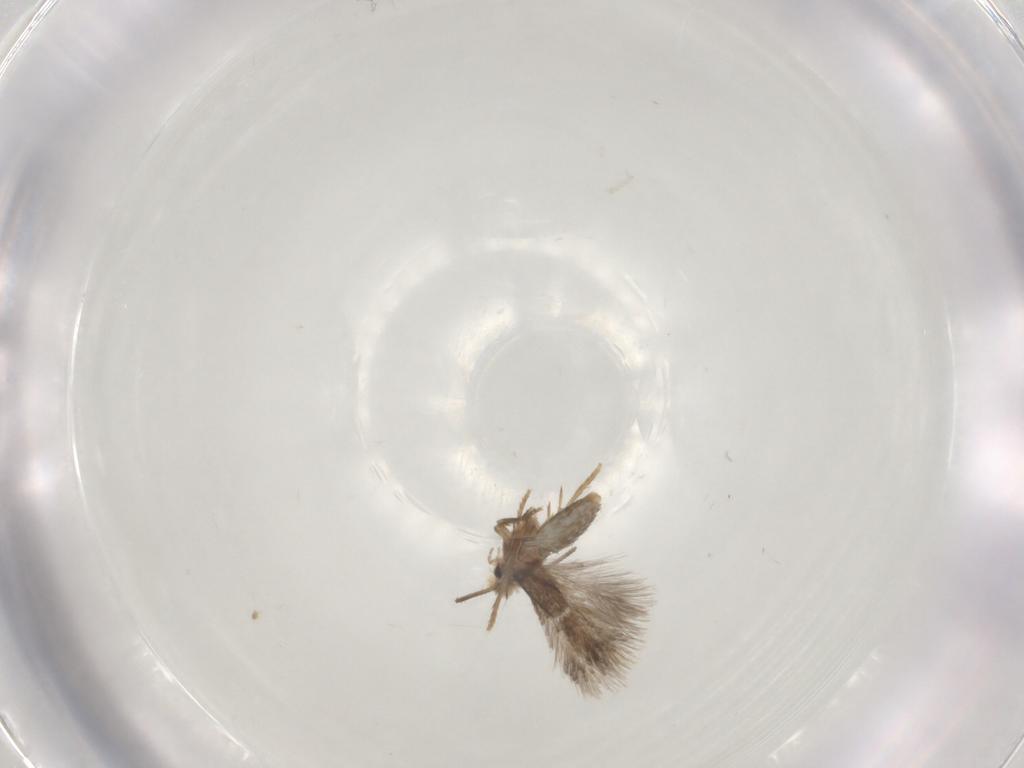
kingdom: Animalia
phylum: Arthropoda
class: Insecta
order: Lepidoptera
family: Nepticulidae
